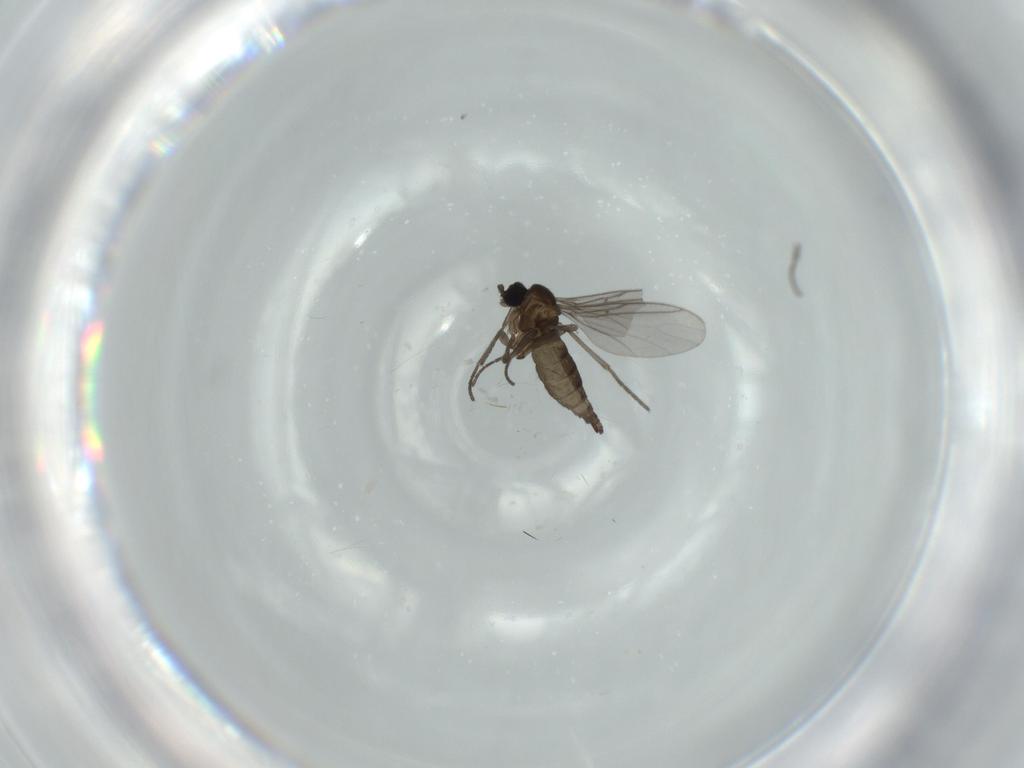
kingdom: Animalia
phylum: Arthropoda
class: Insecta
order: Diptera
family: Milichiidae
